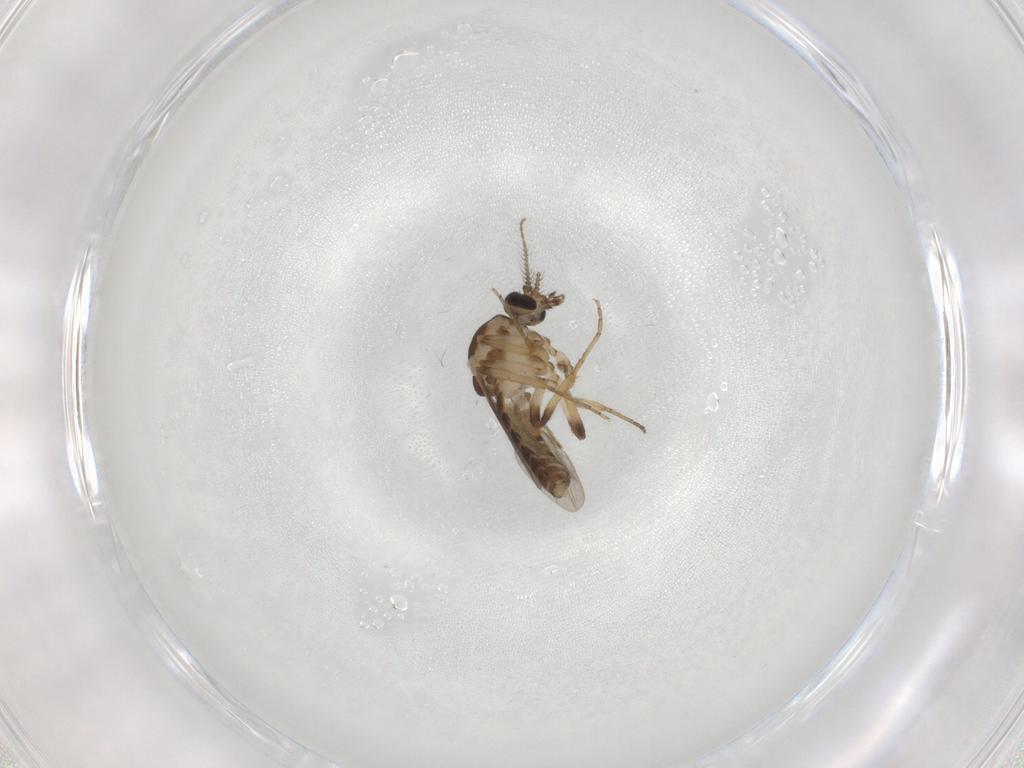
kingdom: Animalia
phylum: Arthropoda
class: Insecta
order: Diptera
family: Ceratopogonidae
